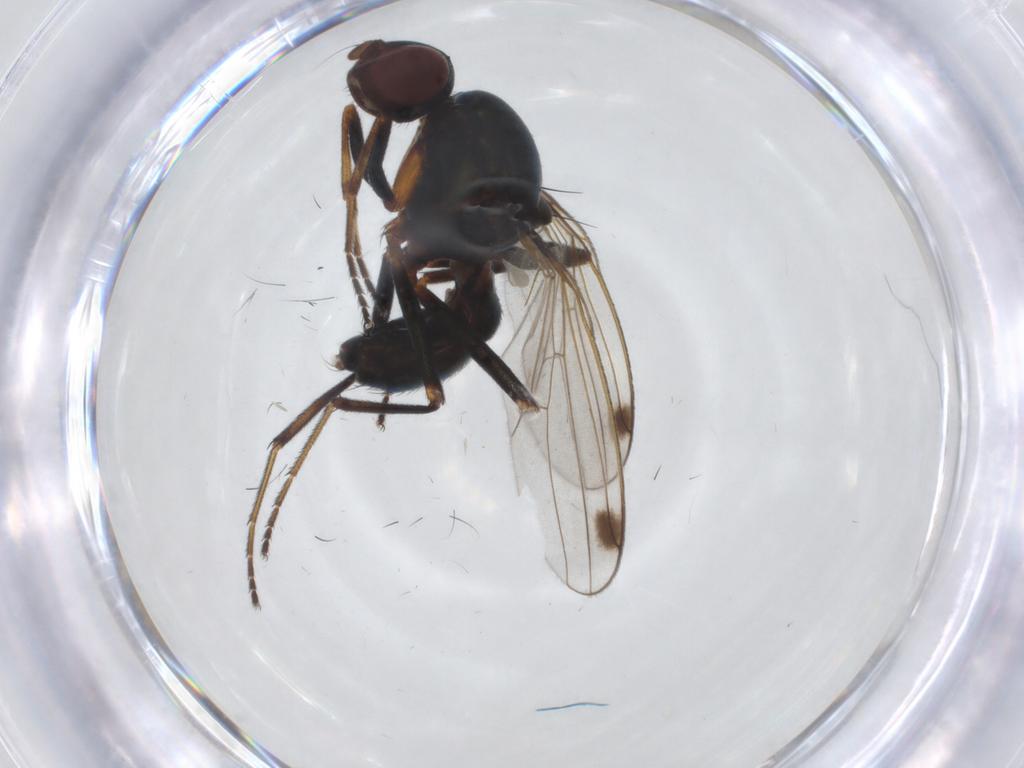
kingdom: Animalia
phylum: Arthropoda
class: Insecta
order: Diptera
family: Sepsidae
